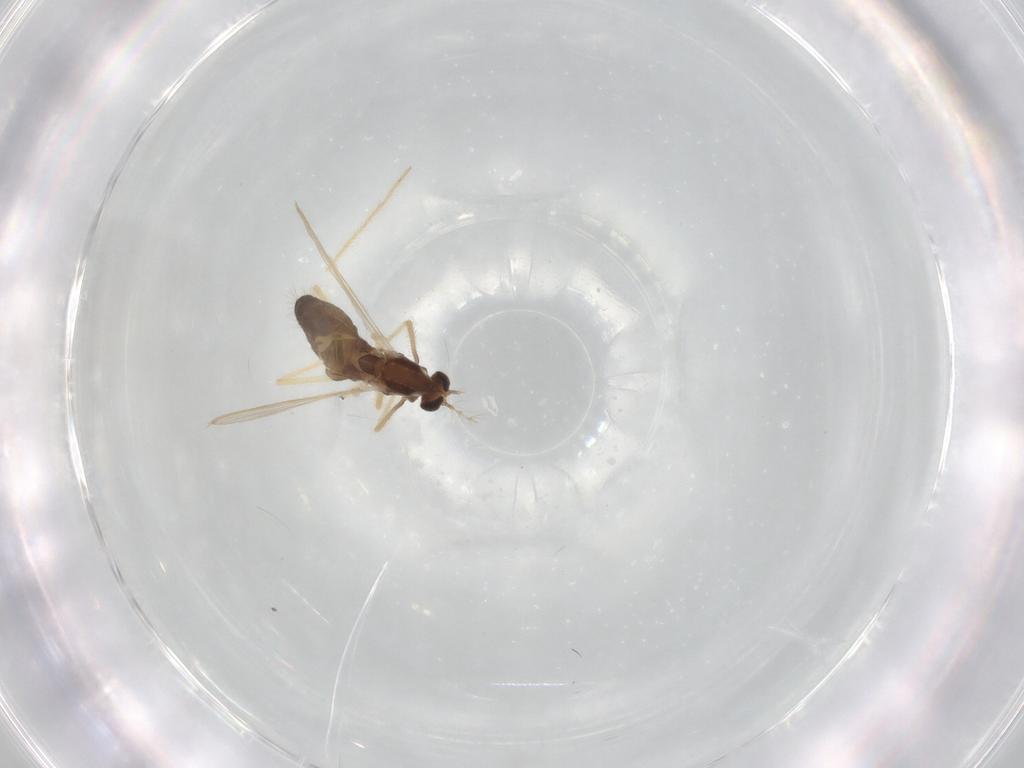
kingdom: Animalia
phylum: Arthropoda
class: Insecta
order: Diptera
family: Chironomidae
